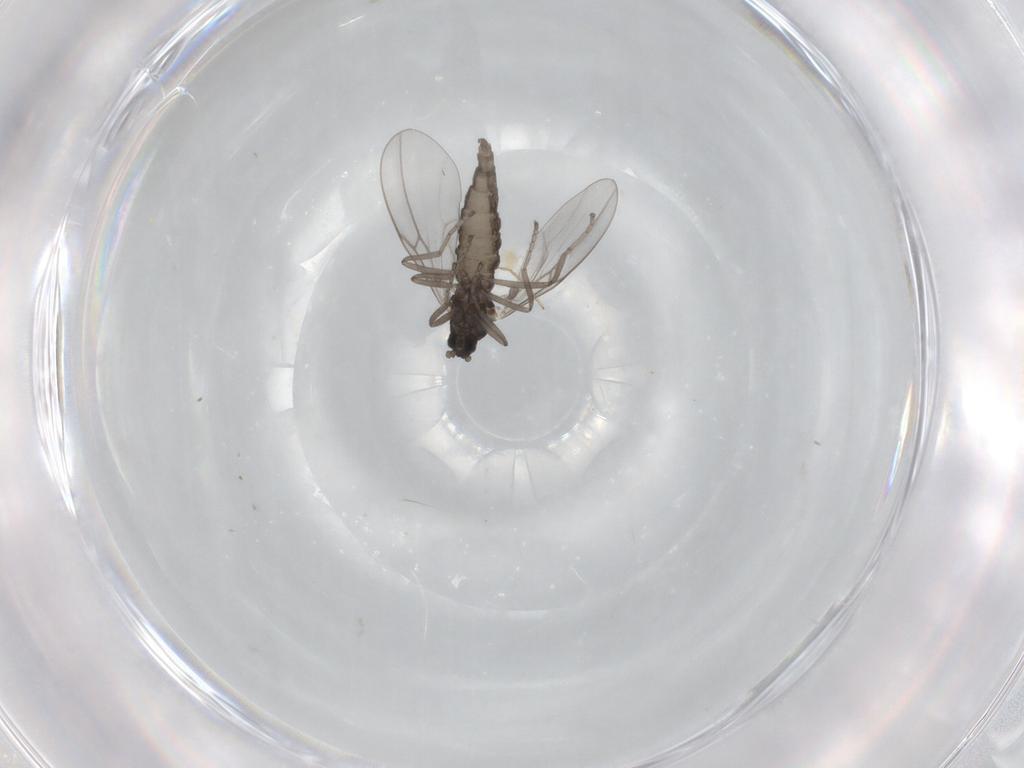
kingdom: Animalia
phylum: Arthropoda
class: Insecta
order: Diptera
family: Cecidomyiidae
